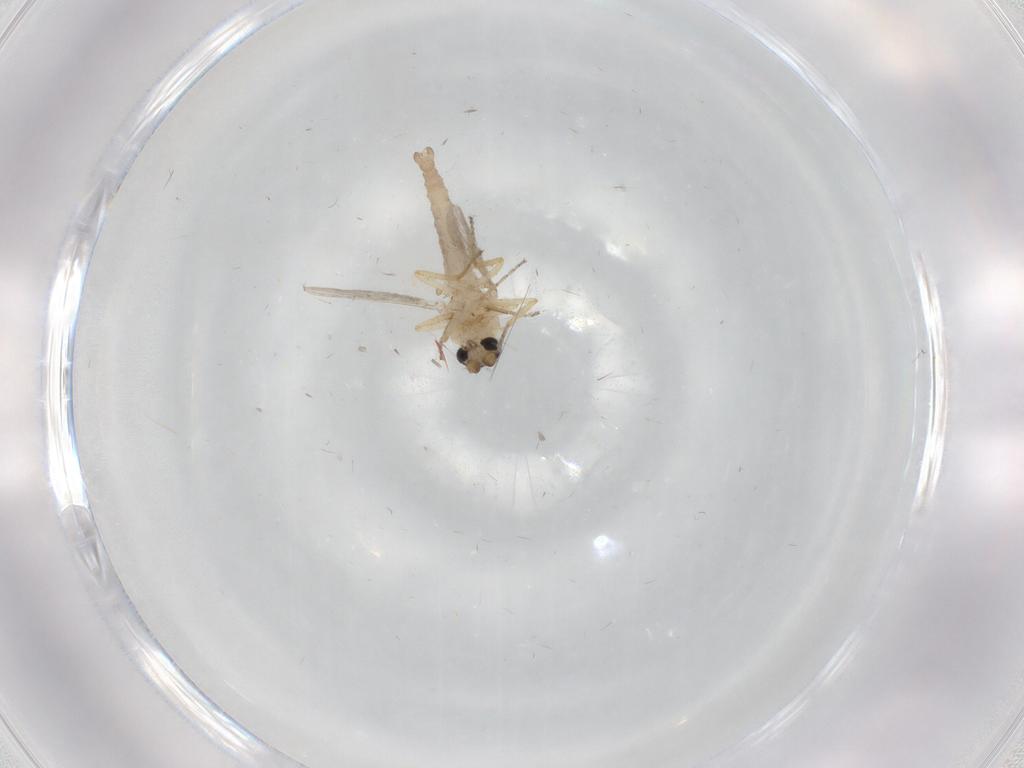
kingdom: Animalia
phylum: Arthropoda
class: Insecta
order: Diptera
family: Ceratopogonidae
